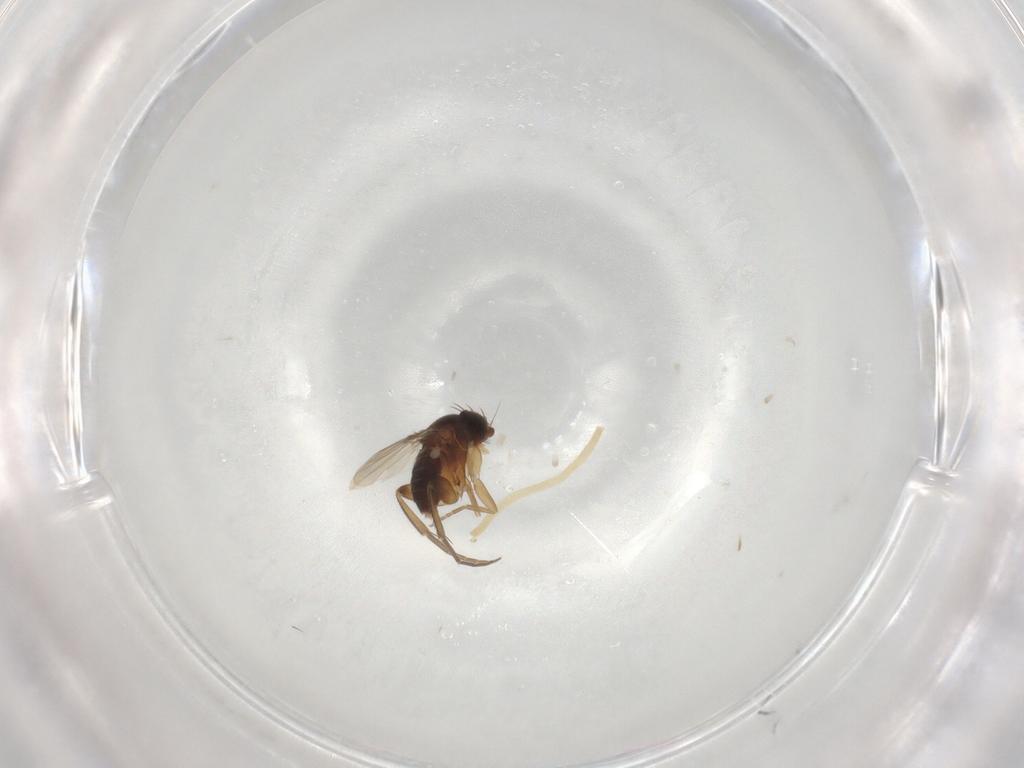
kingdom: Animalia
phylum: Arthropoda
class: Insecta
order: Diptera
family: Phoridae
